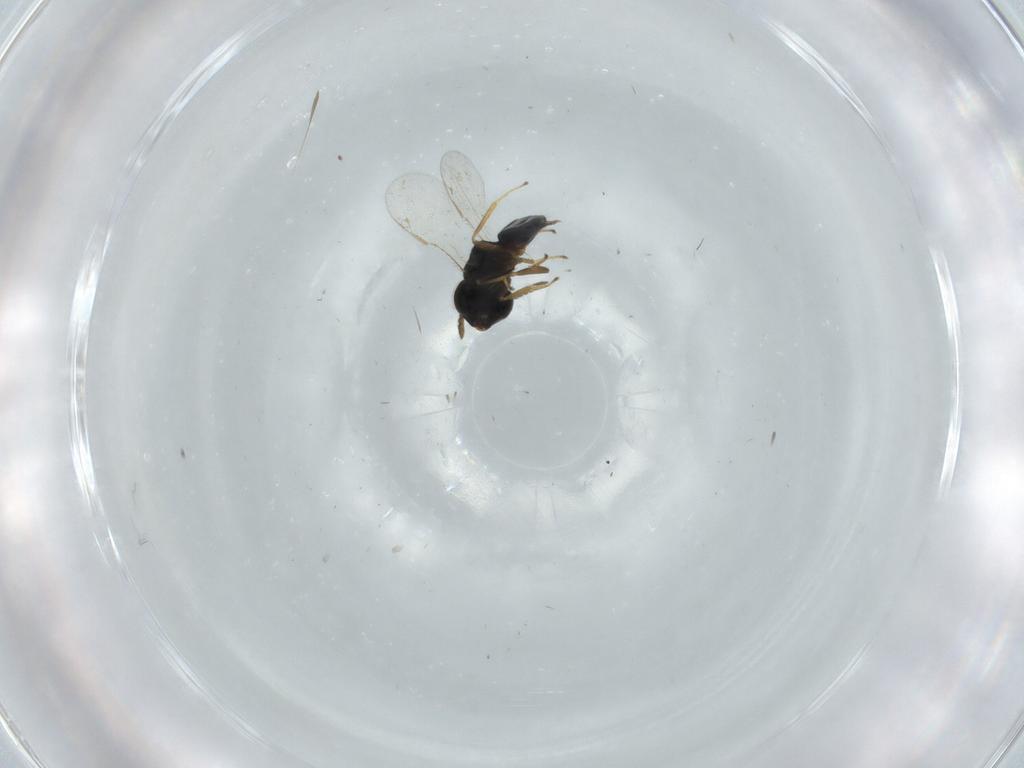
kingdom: Animalia
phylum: Arthropoda
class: Insecta
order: Hymenoptera
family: Pteromalidae
